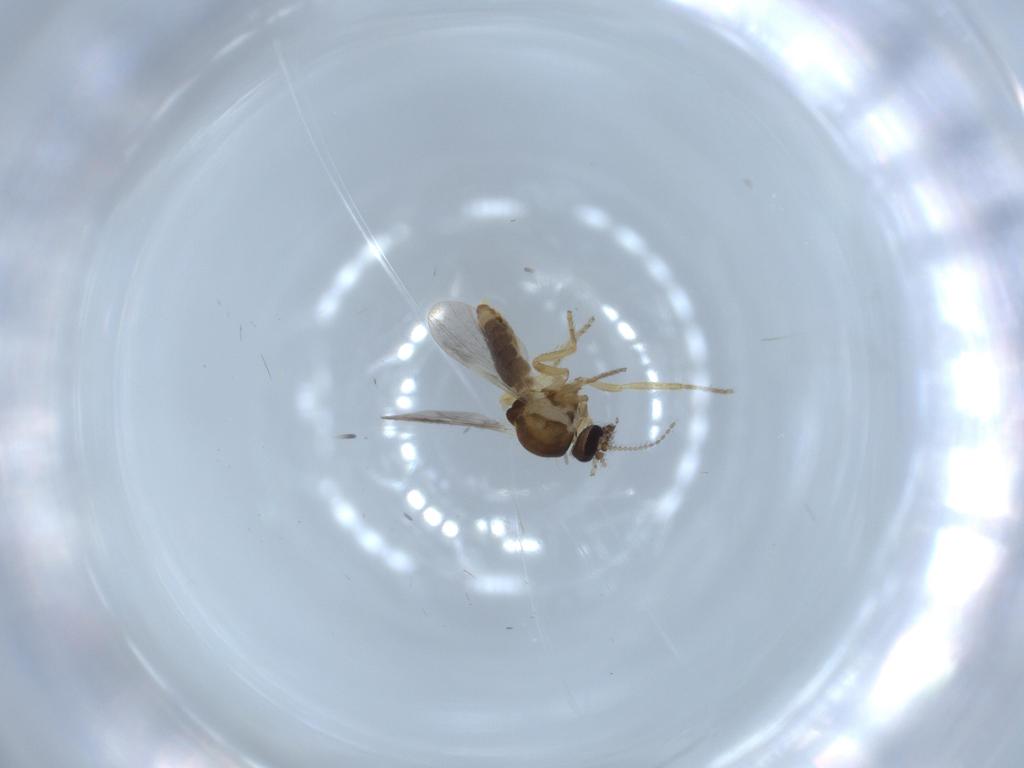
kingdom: Animalia
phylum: Arthropoda
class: Insecta
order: Diptera
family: Ceratopogonidae
